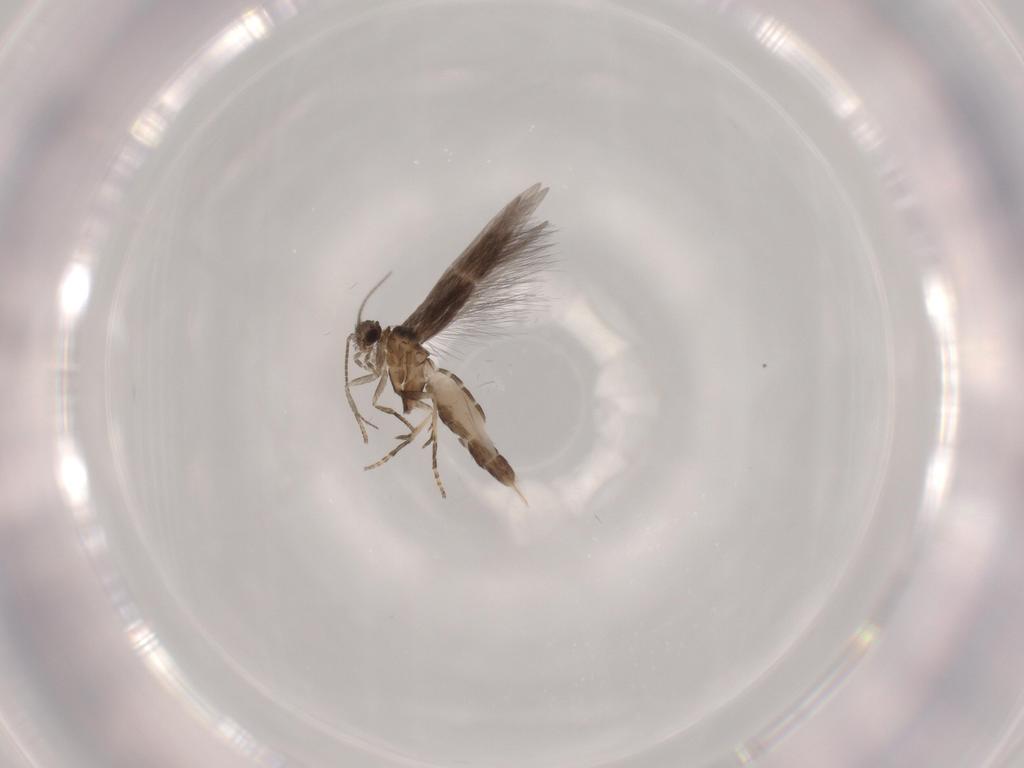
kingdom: Animalia
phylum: Arthropoda
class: Insecta
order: Trichoptera
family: Hydroptilidae
